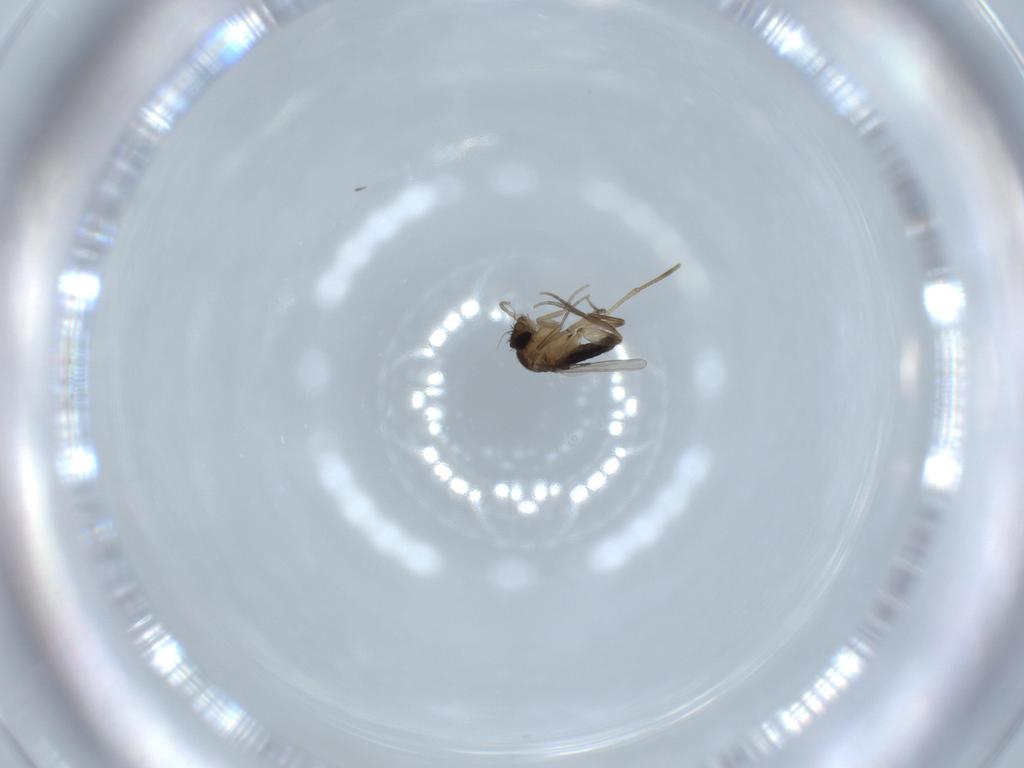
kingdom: Animalia
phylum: Arthropoda
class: Insecta
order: Diptera
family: Phoridae
